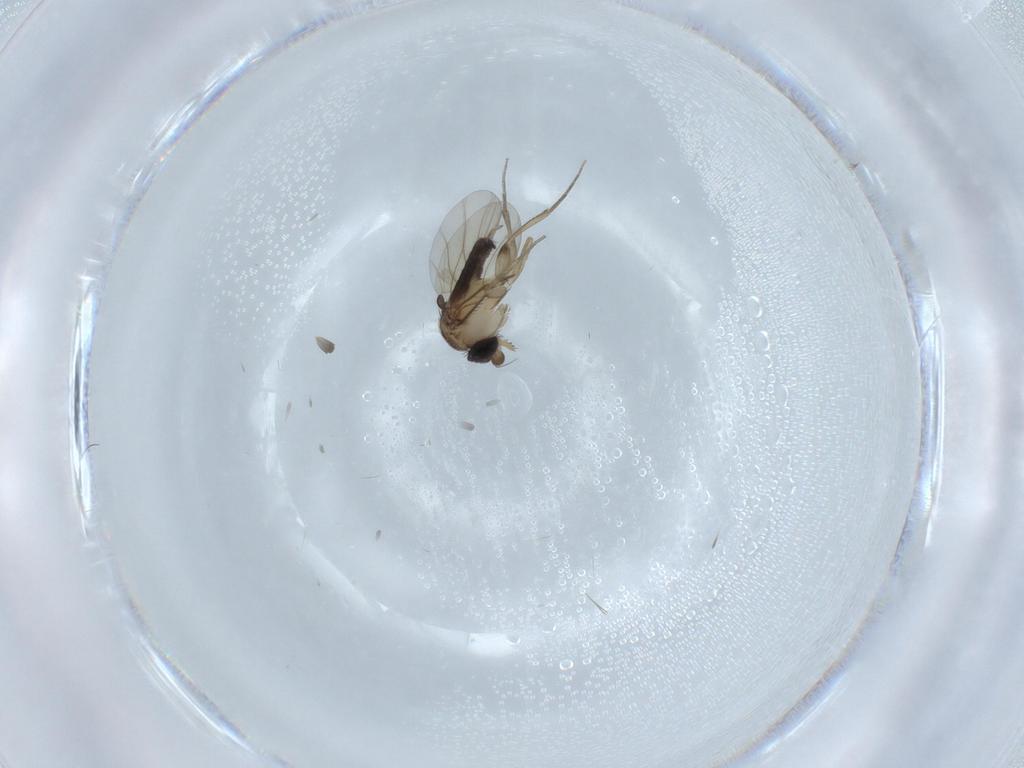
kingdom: Animalia
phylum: Arthropoda
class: Insecta
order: Diptera
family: Phoridae
